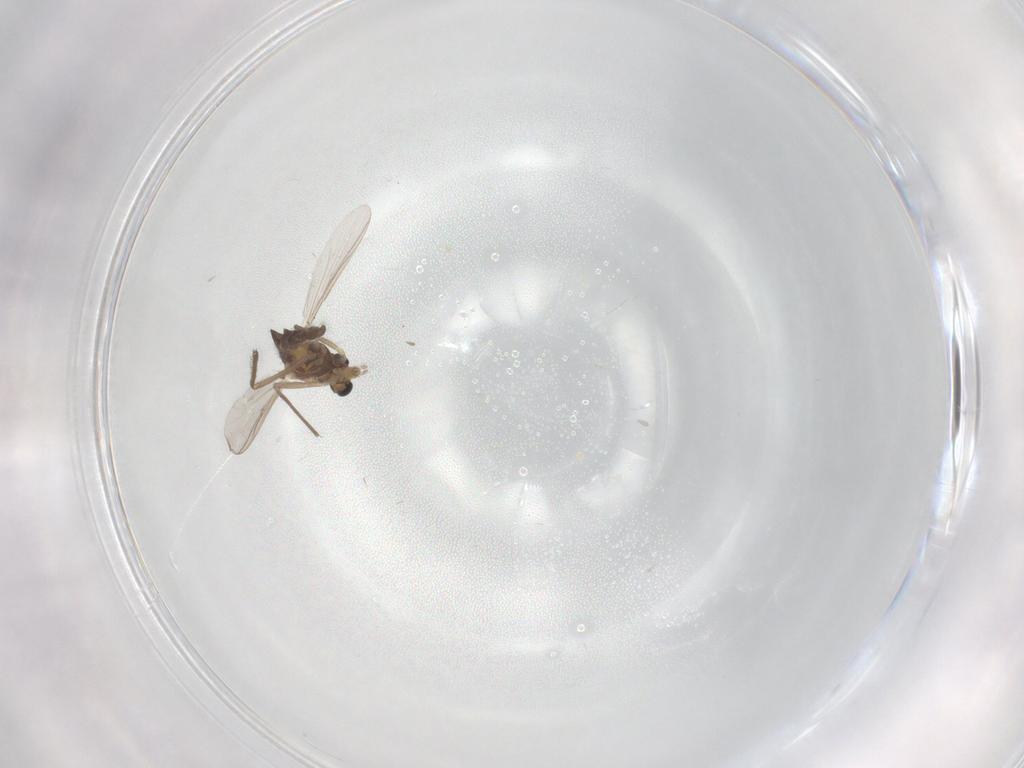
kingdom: Animalia
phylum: Arthropoda
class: Insecta
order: Diptera
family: Chironomidae
